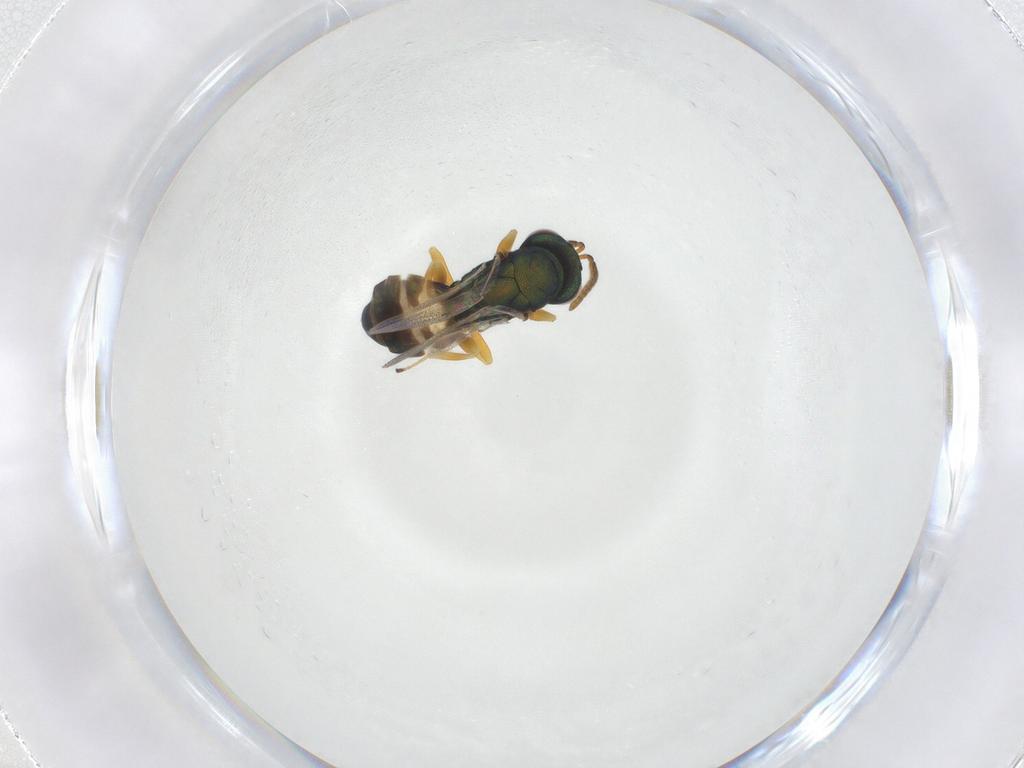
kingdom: Animalia
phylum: Arthropoda
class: Insecta
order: Hymenoptera
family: Pteromalidae
